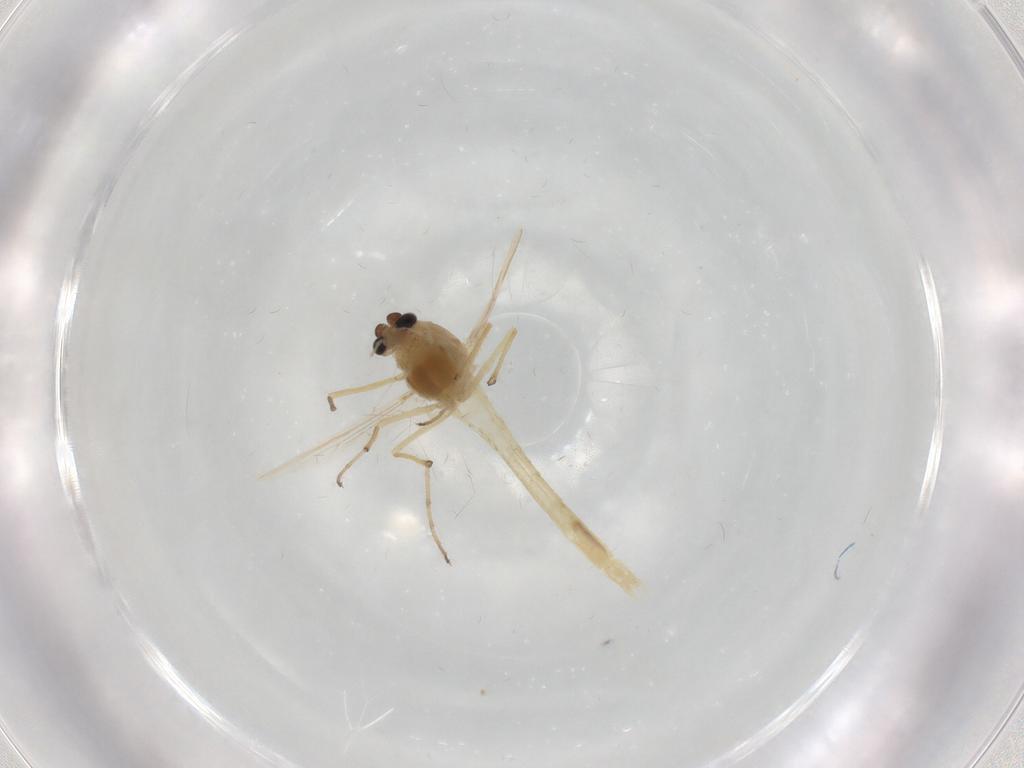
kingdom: Animalia
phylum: Arthropoda
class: Insecta
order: Diptera
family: Chironomidae
